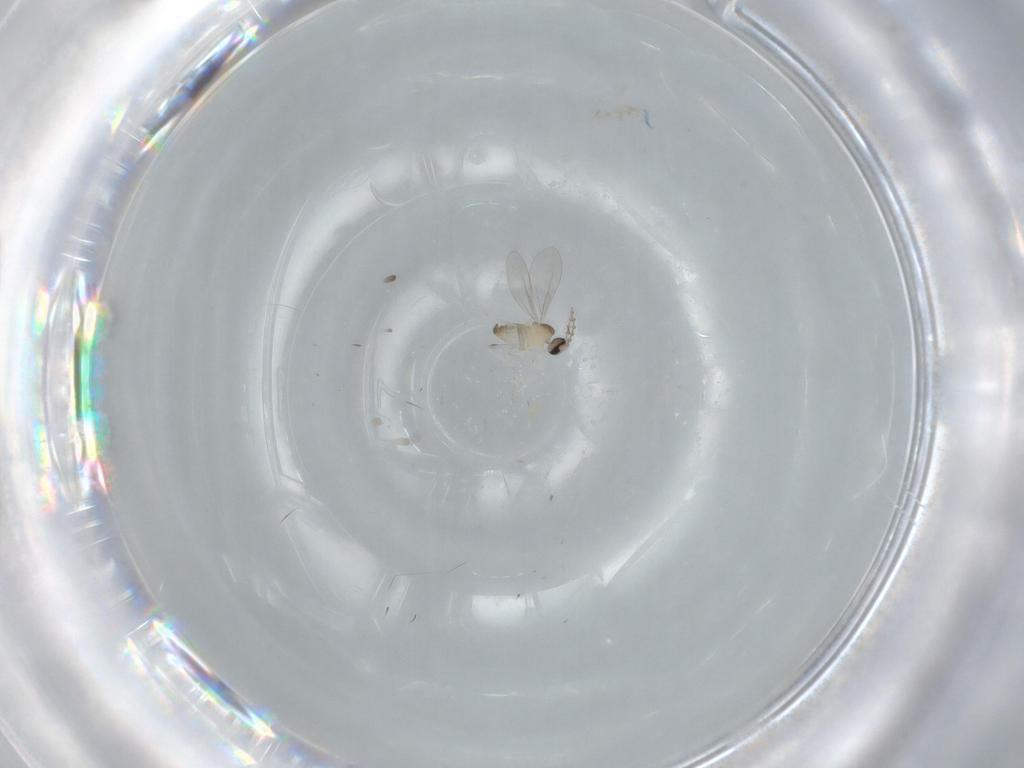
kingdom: Animalia
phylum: Arthropoda
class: Insecta
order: Diptera
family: Cecidomyiidae
